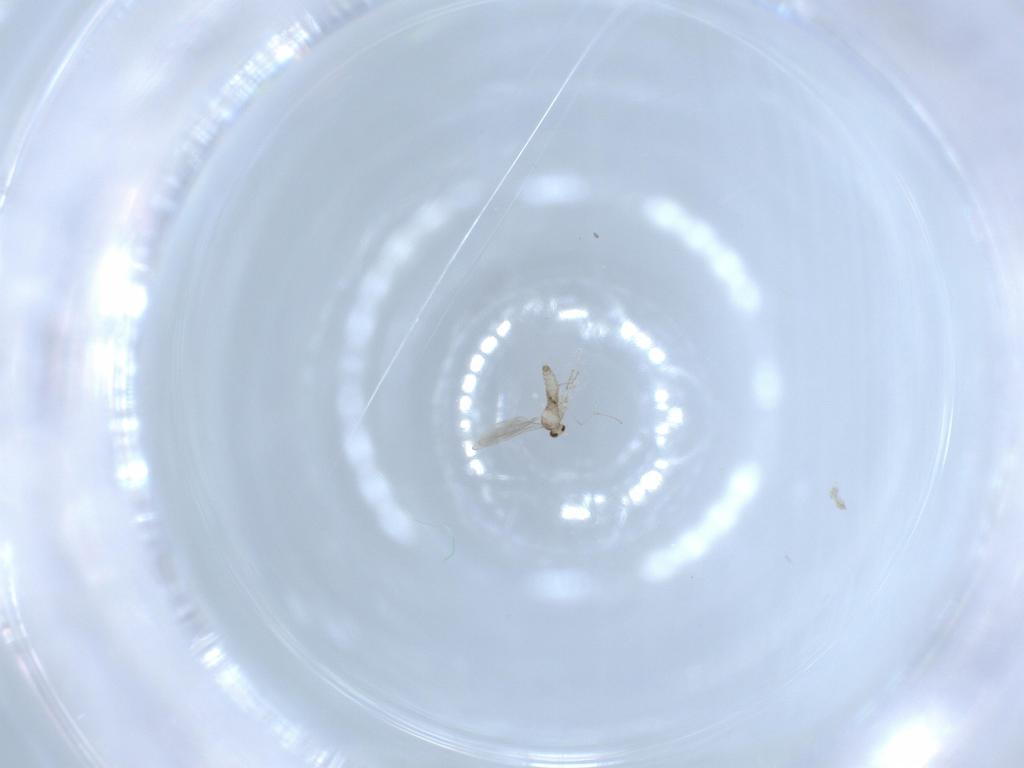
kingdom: Animalia
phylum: Arthropoda
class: Insecta
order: Diptera
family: Cecidomyiidae
